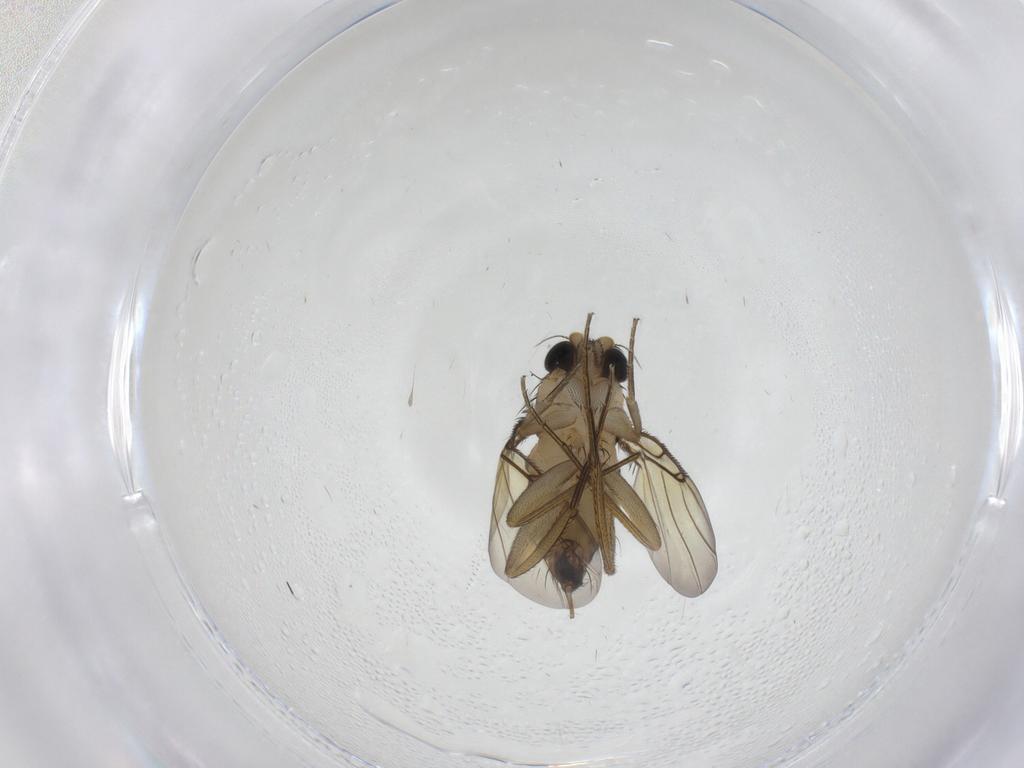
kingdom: Animalia
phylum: Arthropoda
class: Insecta
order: Diptera
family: Phoridae
